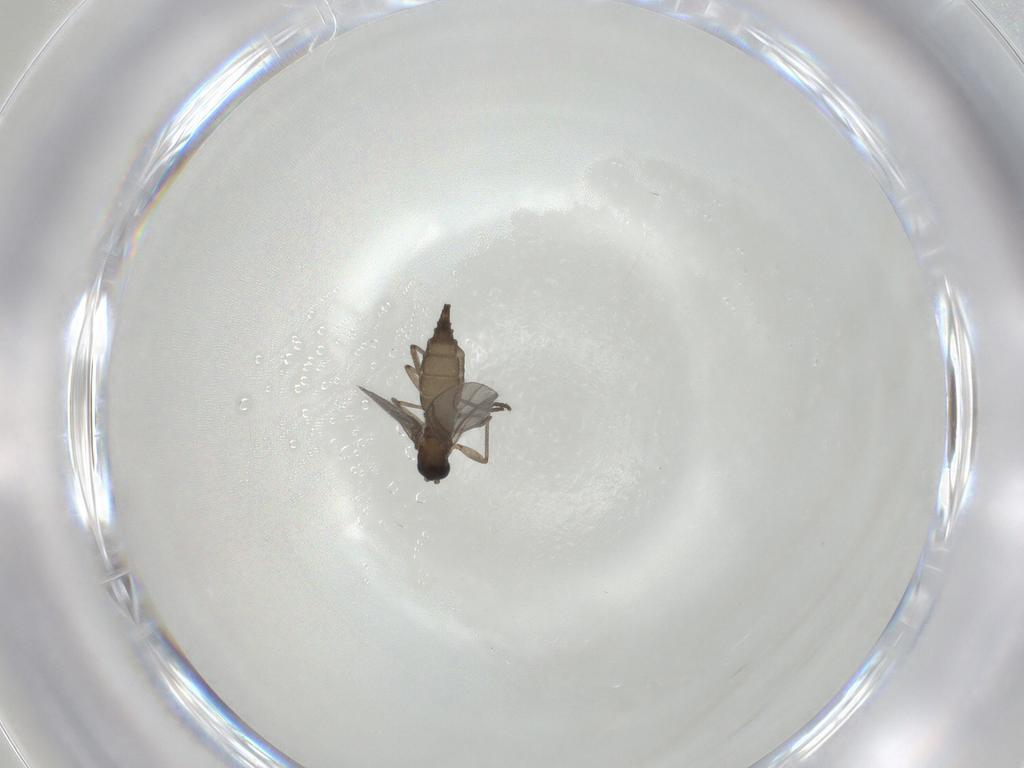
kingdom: Animalia
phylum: Arthropoda
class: Insecta
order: Diptera
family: Sciaridae
